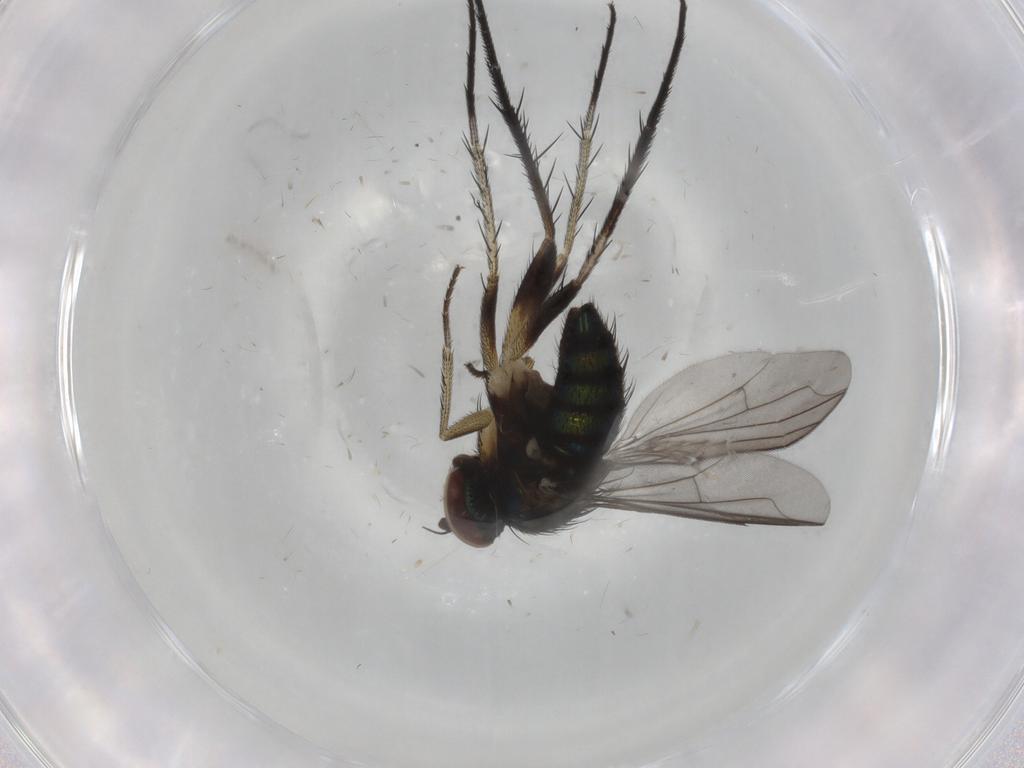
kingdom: Animalia
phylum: Arthropoda
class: Insecta
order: Diptera
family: Dolichopodidae
